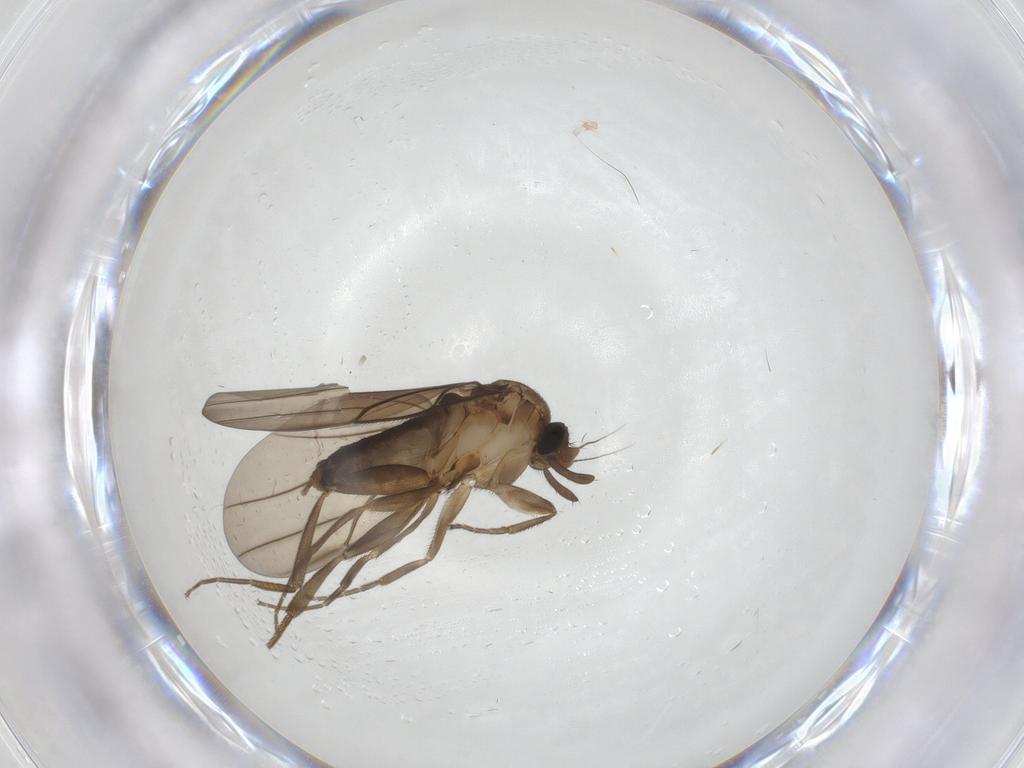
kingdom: Animalia
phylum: Arthropoda
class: Insecta
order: Diptera
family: Phoridae
